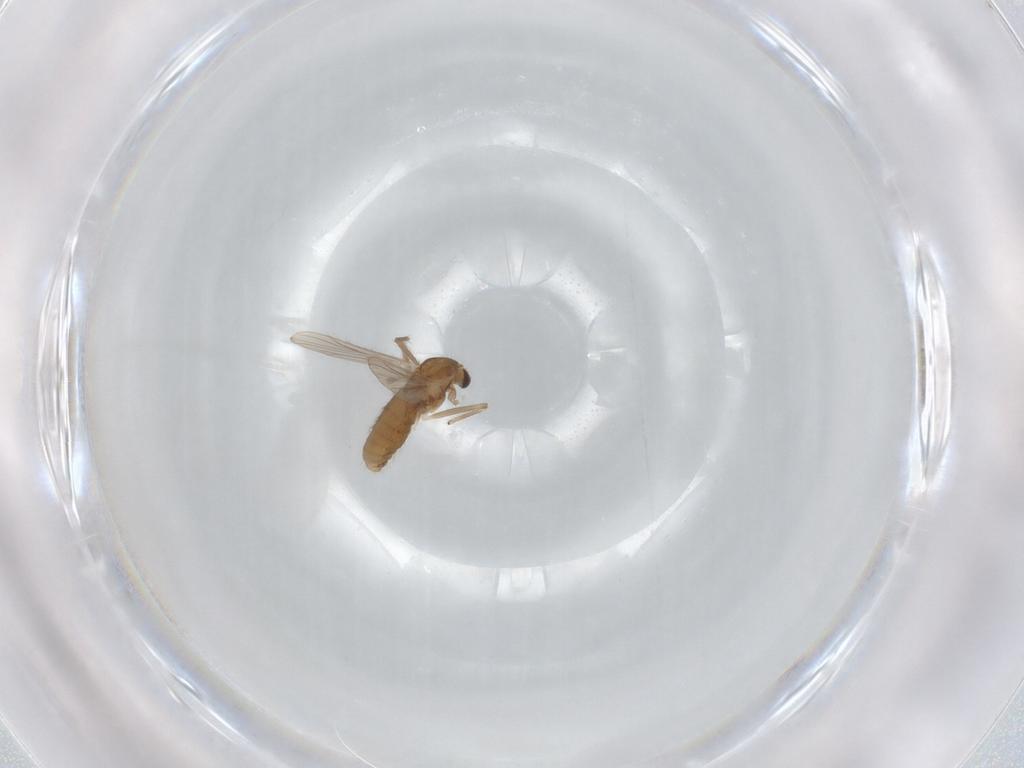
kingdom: Animalia
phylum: Arthropoda
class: Insecta
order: Diptera
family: Chironomidae
